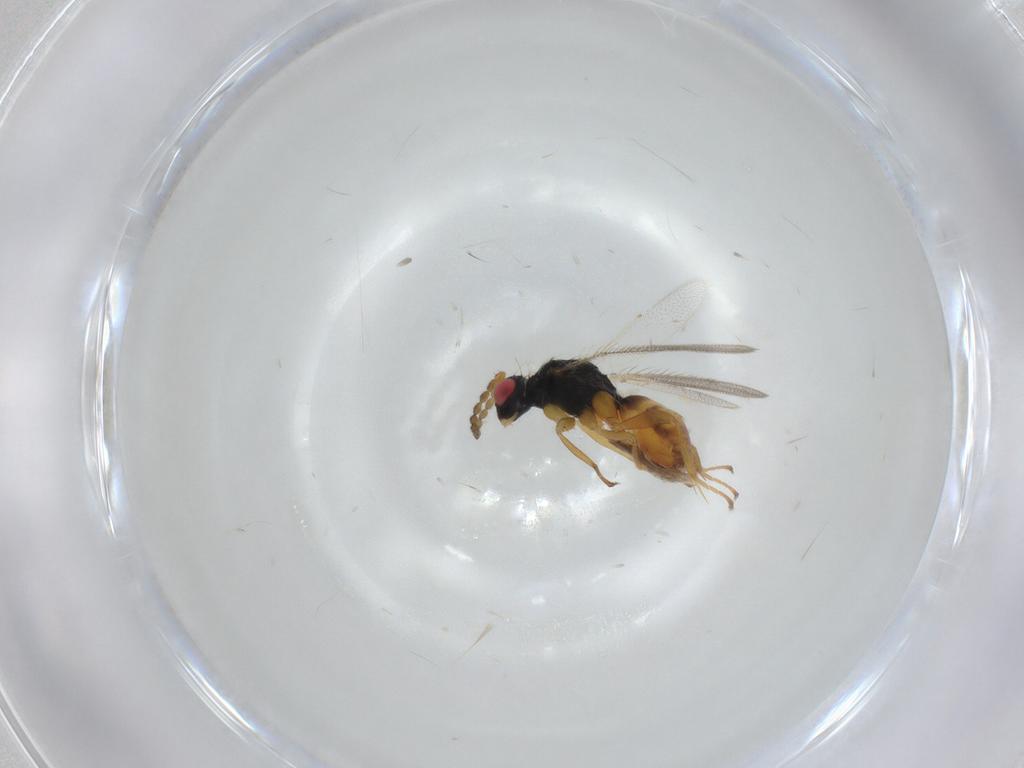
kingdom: Animalia
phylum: Arthropoda
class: Insecta
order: Hymenoptera
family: Eulophidae
